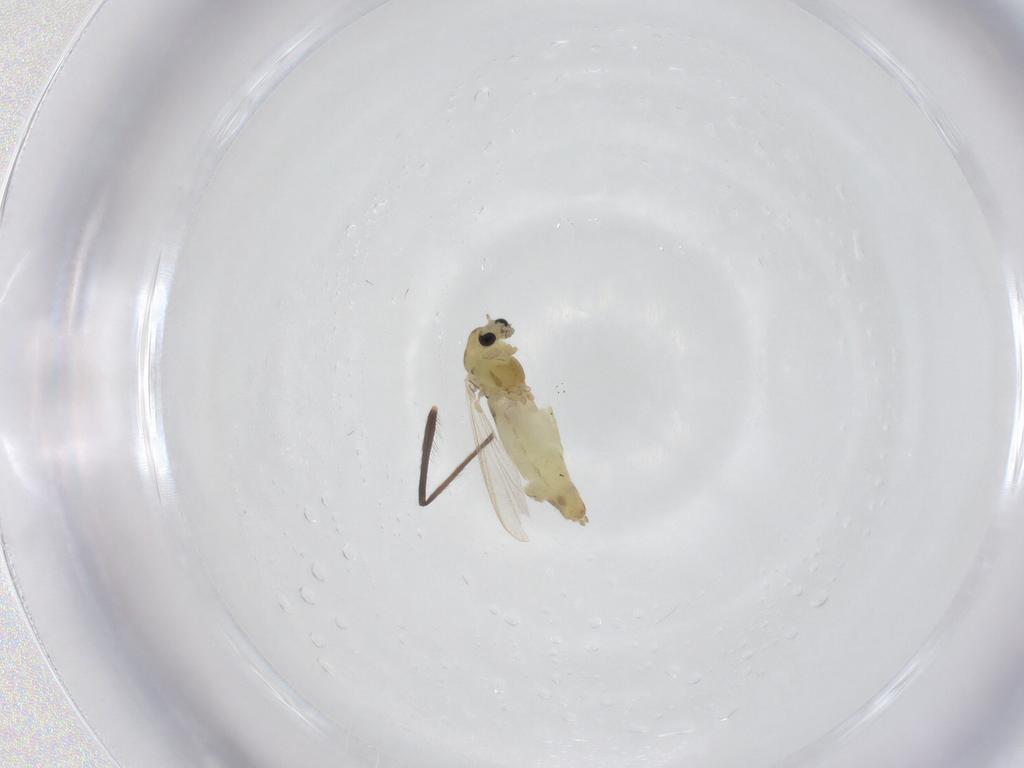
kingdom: Animalia
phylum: Arthropoda
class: Insecta
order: Diptera
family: Chironomidae
